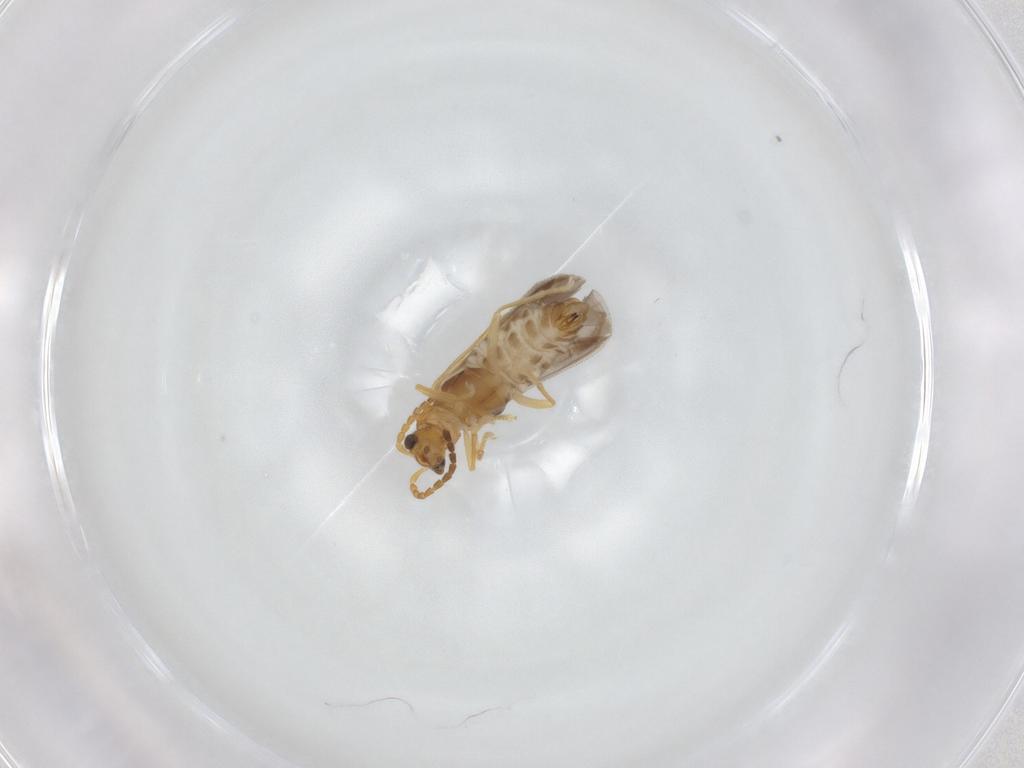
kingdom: Animalia
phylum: Arthropoda
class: Insecta
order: Coleoptera
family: Cantharidae
